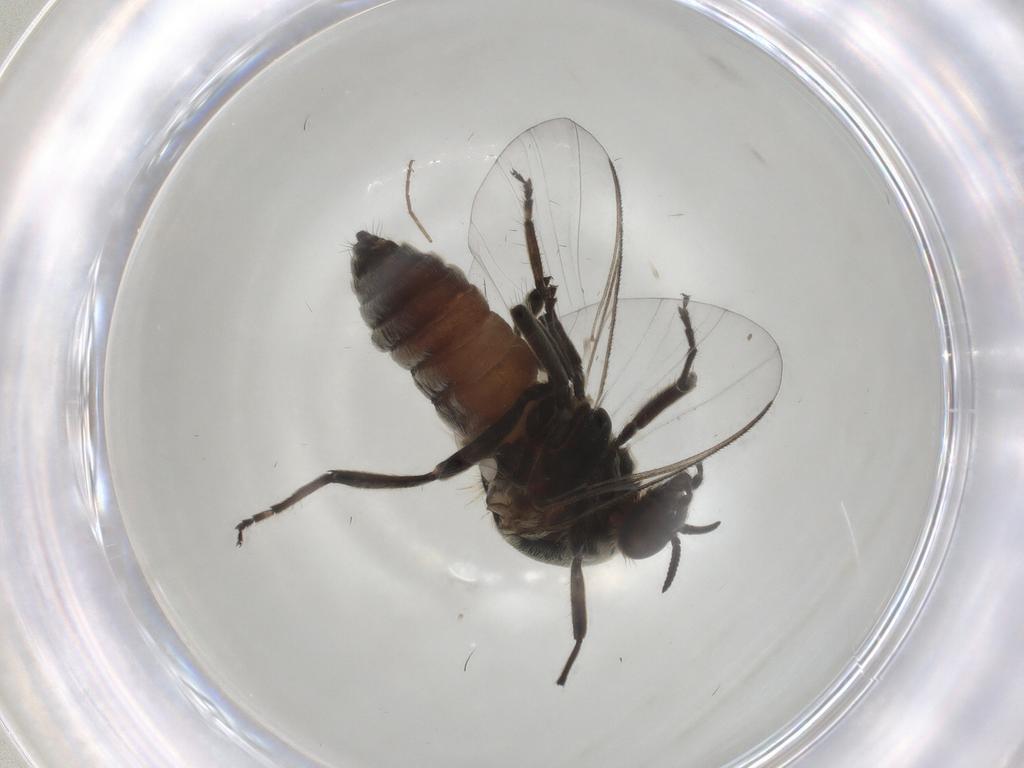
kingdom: Animalia
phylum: Arthropoda
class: Insecta
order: Diptera
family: Chironomidae
